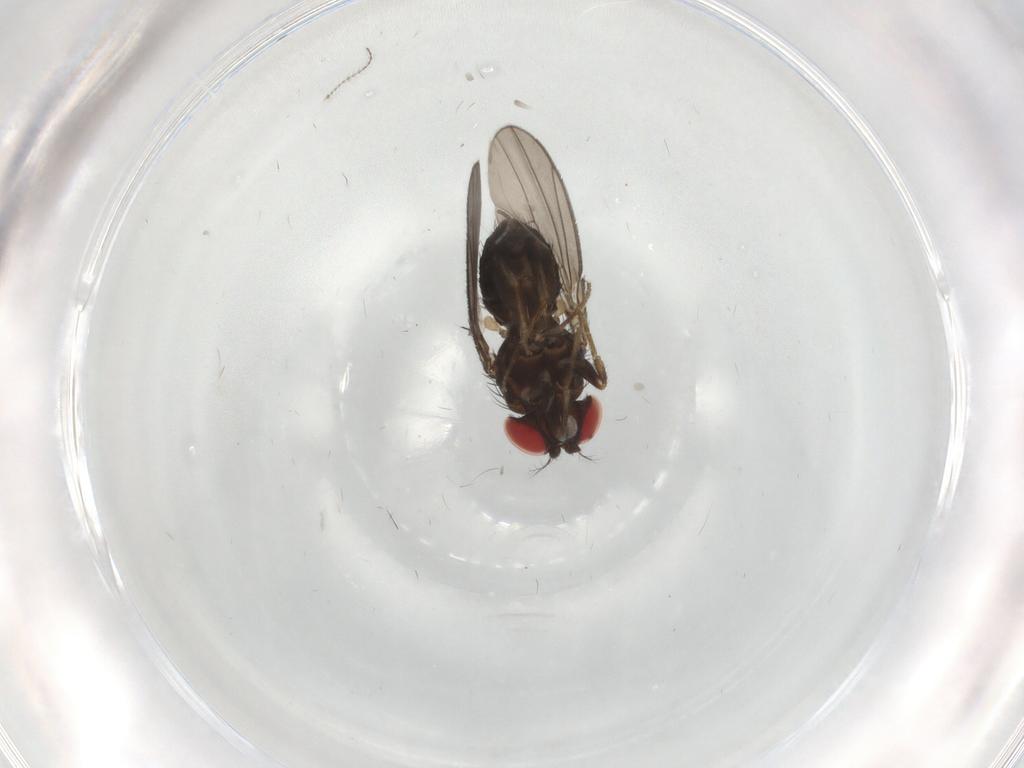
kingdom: Animalia
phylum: Arthropoda
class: Insecta
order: Diptera
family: Drosophilidae
